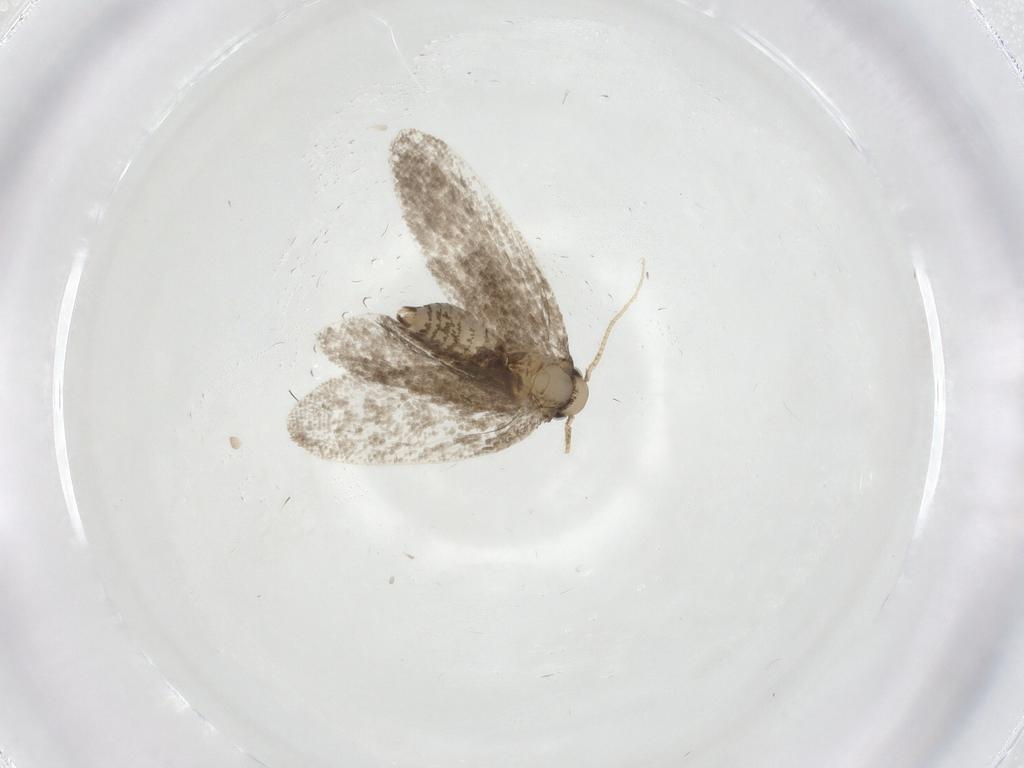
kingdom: Animalia
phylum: Arthropoda
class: Insecta
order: Lepidoptera
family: Psychidae
